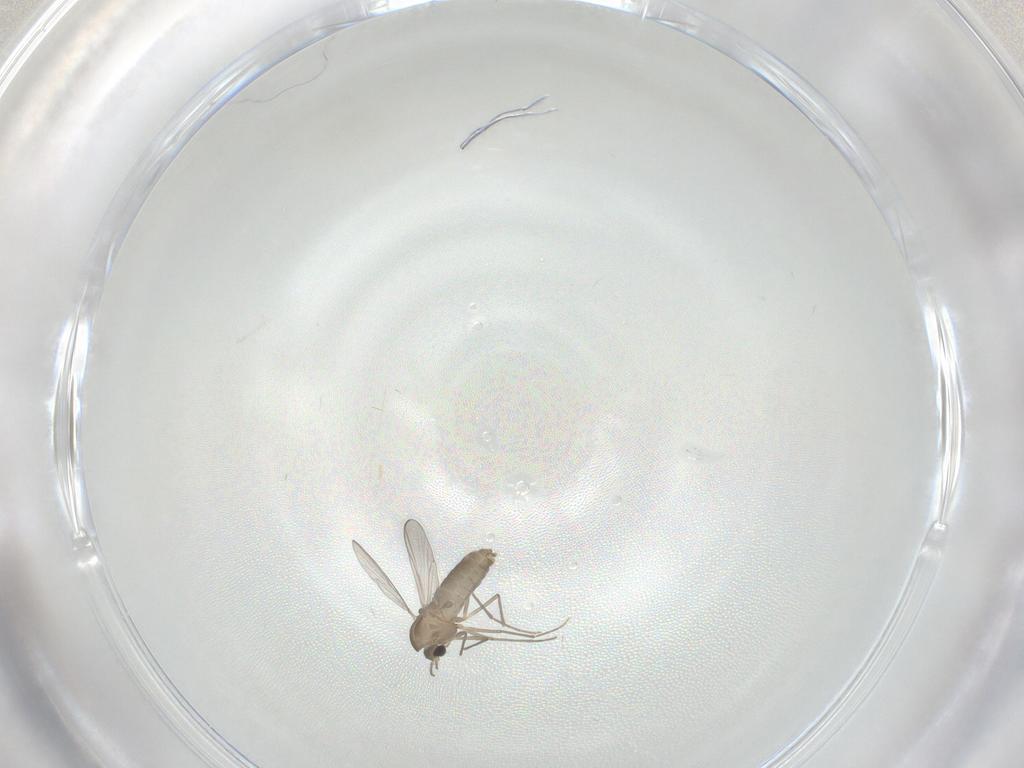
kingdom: Animalia
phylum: Arthropoda
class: Insecta
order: Diptera
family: Chironomidae
